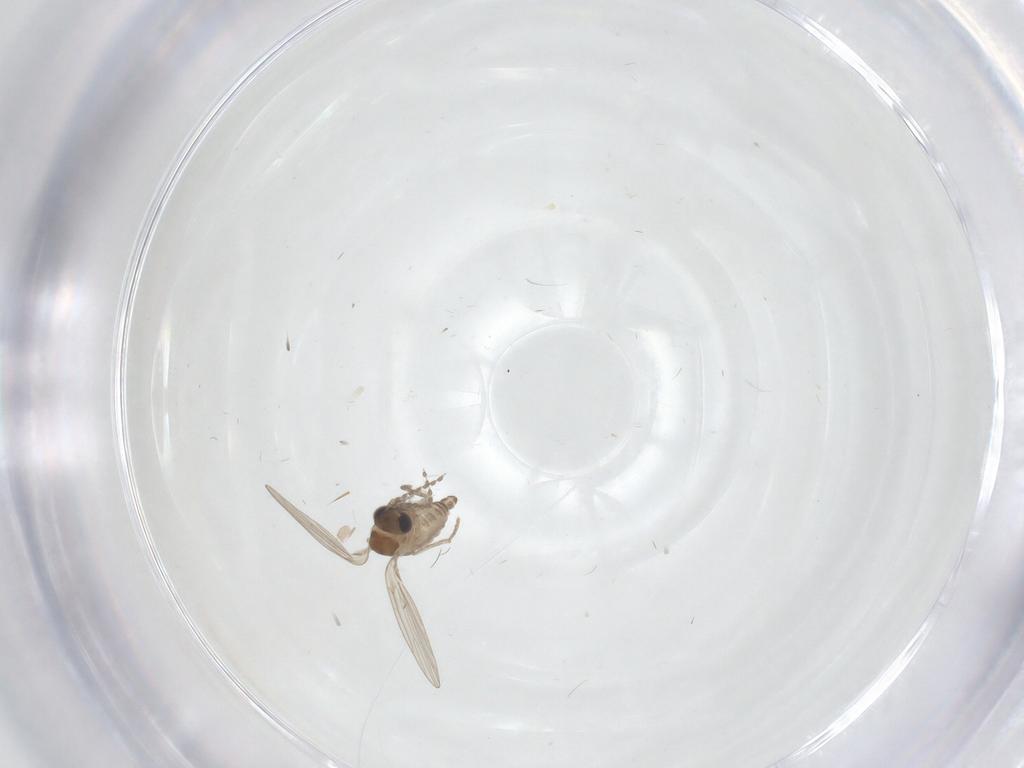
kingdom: Animalia
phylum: Arthropoda
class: Insecta
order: Diptera
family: Psychodidae
